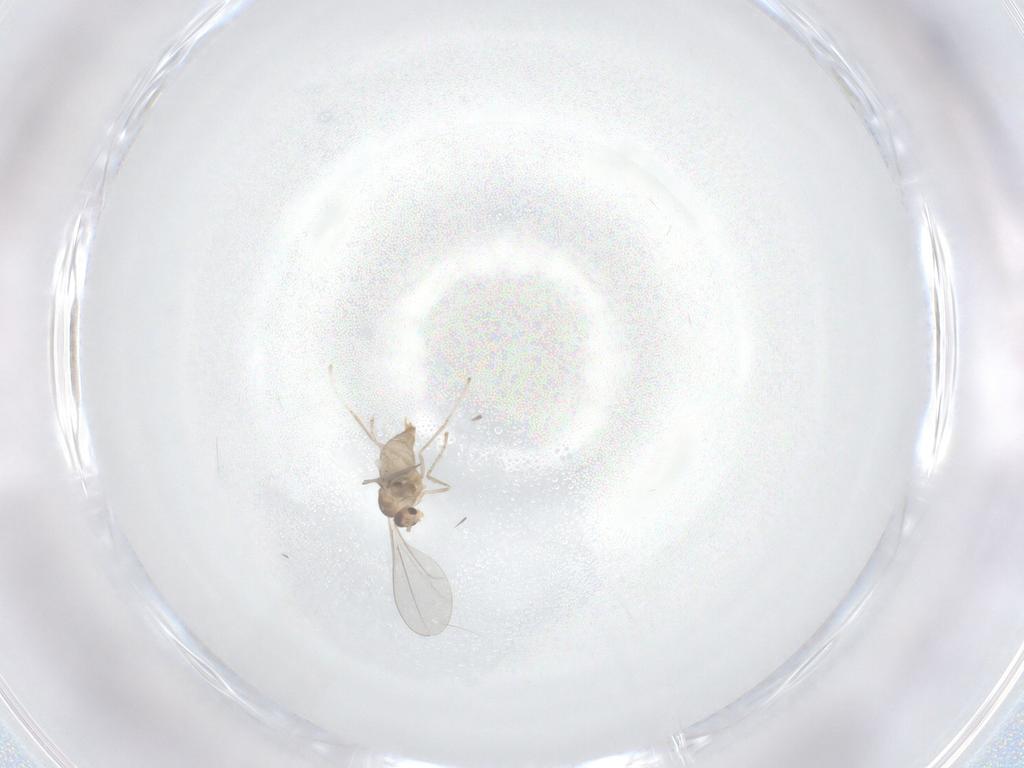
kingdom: Animalia
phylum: Arthropoda
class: Insecta
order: Diptera
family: Cecidomyiidae
